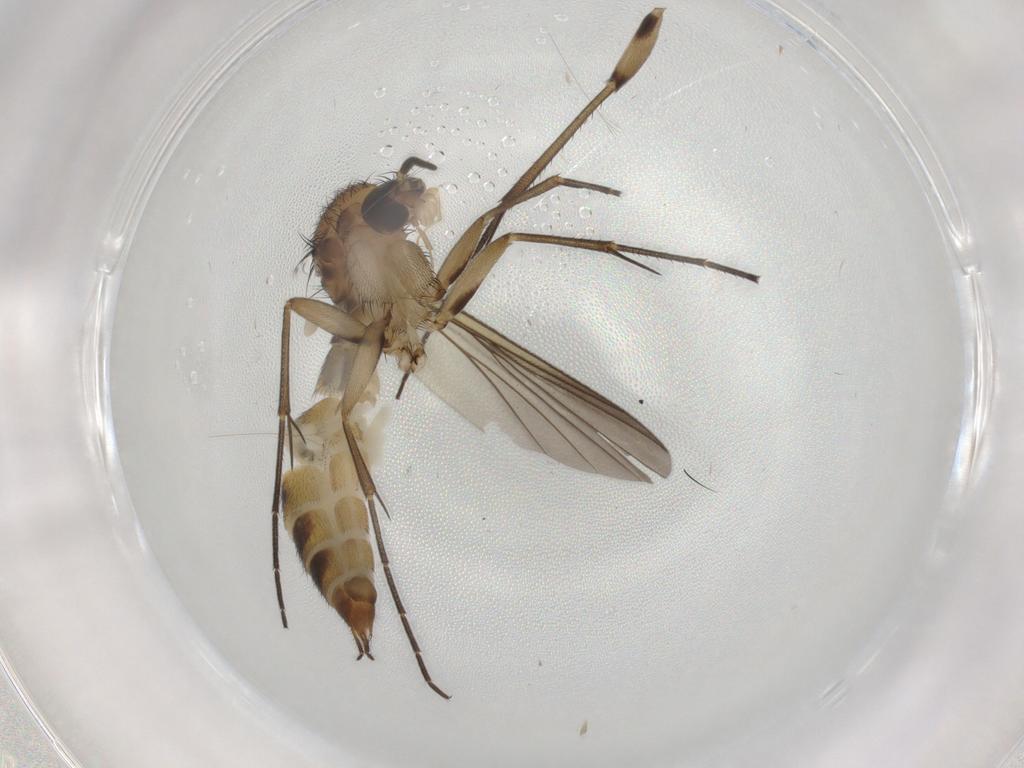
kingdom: Animalia
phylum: Arthropoda
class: Insecta
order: Diptera
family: Mycetophilidae
